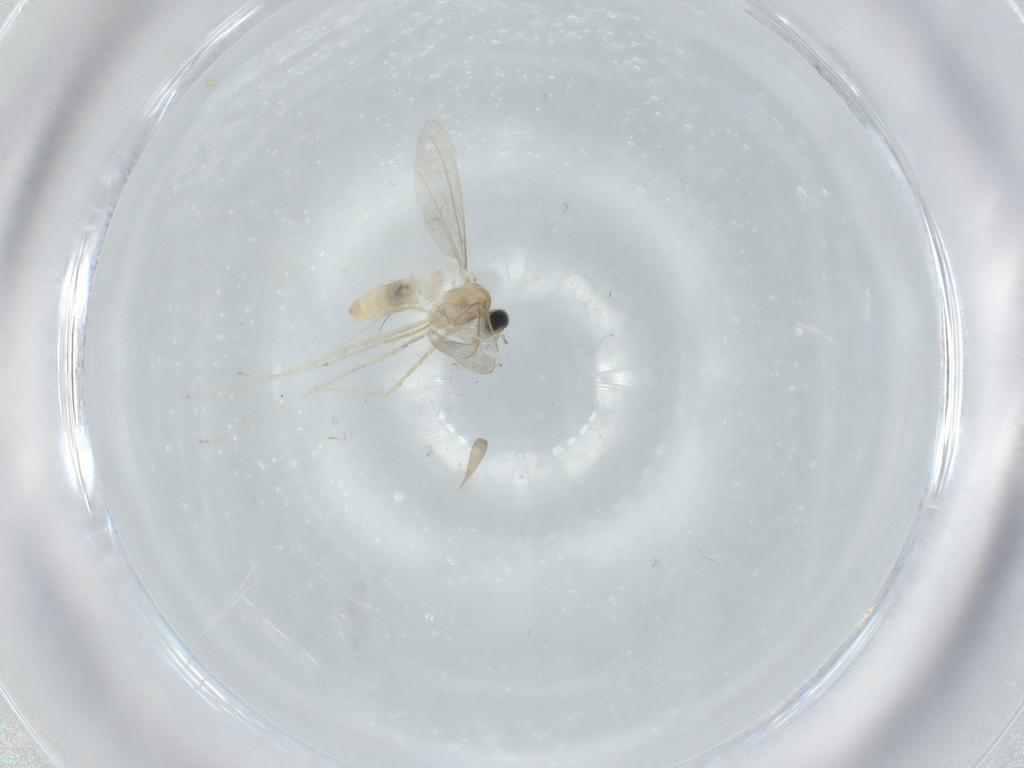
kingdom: Animalia
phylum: Arthropoda
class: Insecta
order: Diptera
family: Cecidomyiidae
